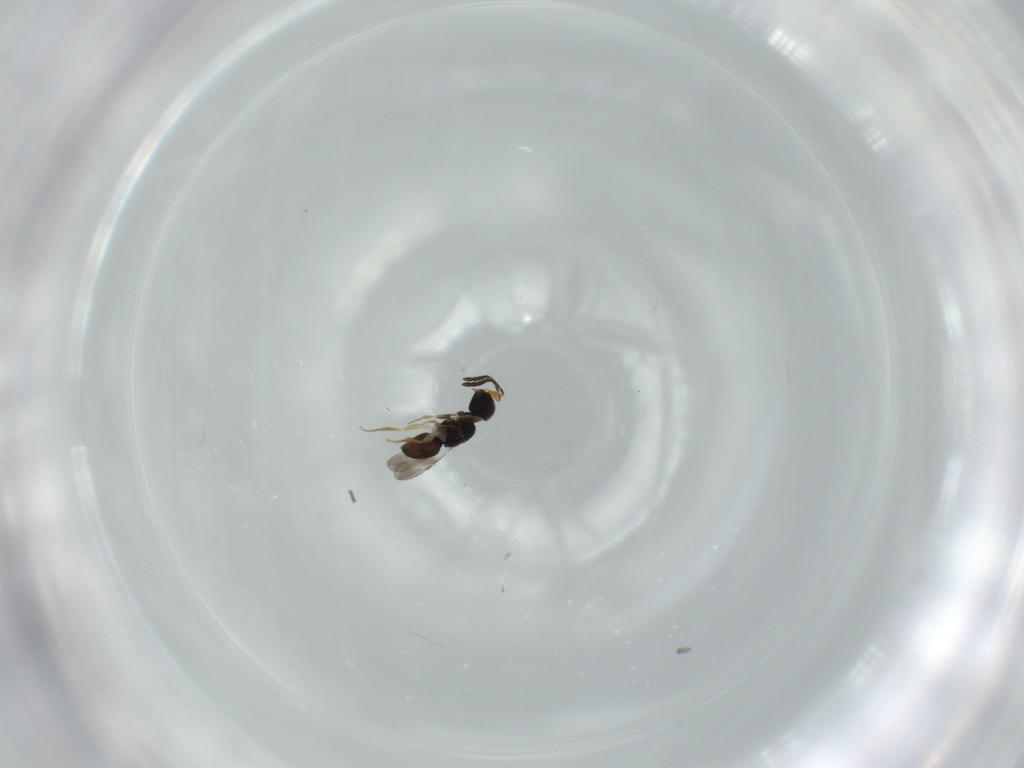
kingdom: Animalia
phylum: Arthropoda
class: Insecta
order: Hymenoptera
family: Ceraphronidae
